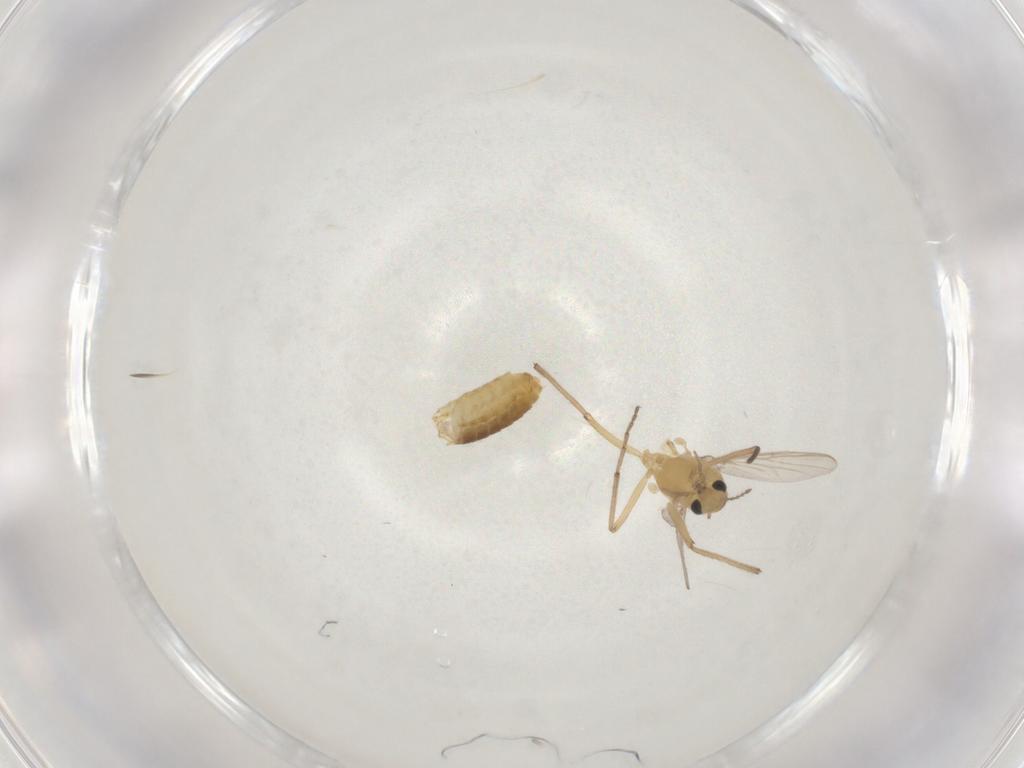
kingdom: Animalia
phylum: Arthropoda
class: Insecta
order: Diptera
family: Chironomidae
